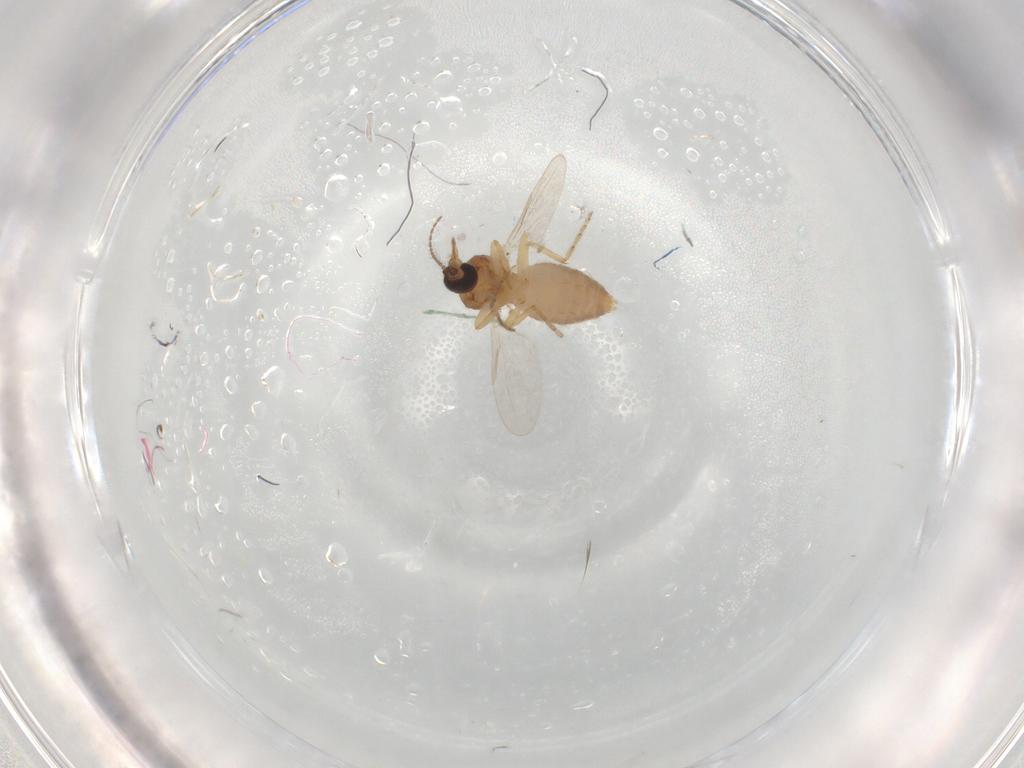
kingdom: Animalia
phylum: Arthropoda
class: Insecta
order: Diptera
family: Ceratopogonidae
